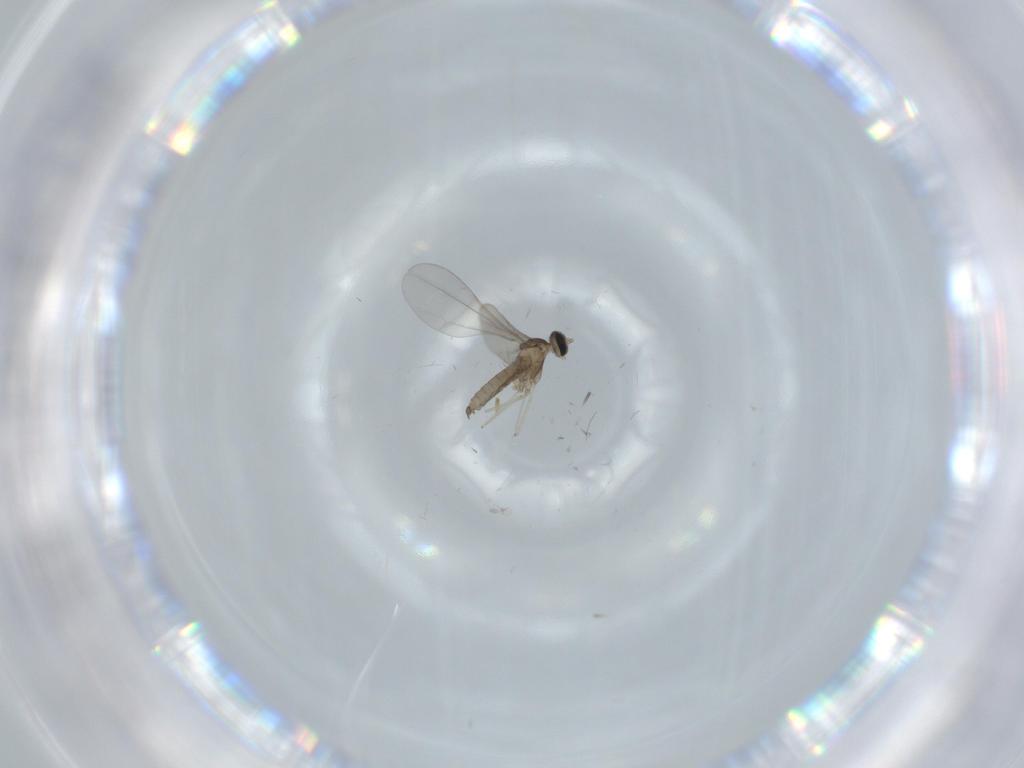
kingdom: Animalia
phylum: Arthropoda
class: Insecta
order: Diptera
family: Cecidomyiidae
